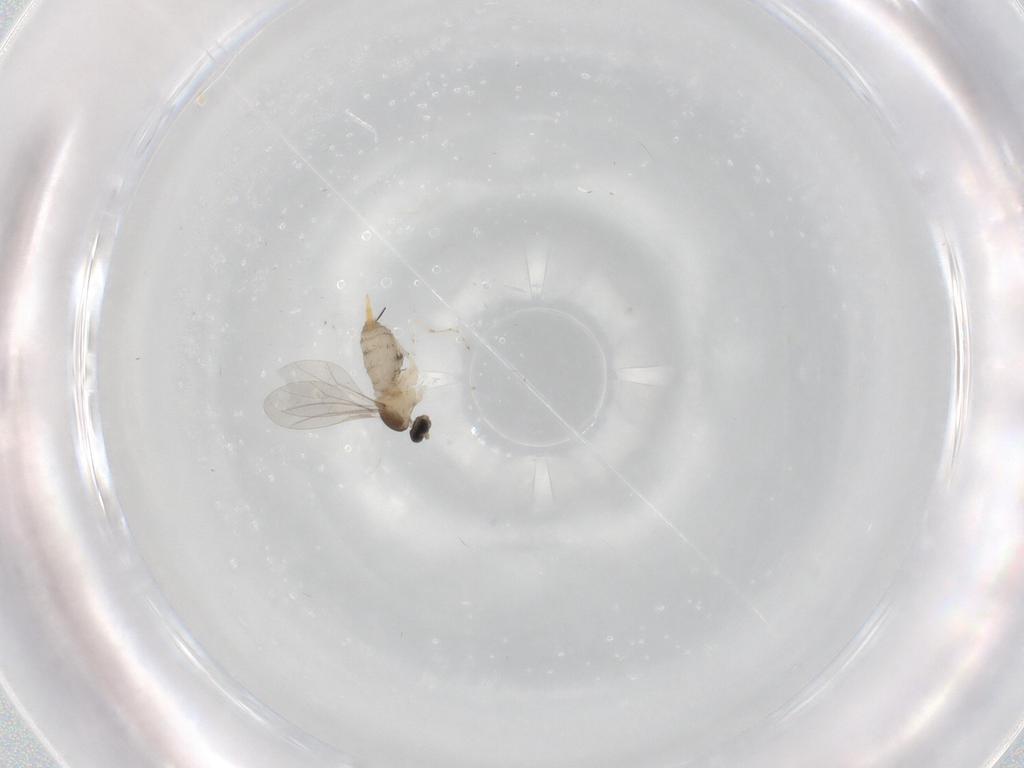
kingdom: Animalia
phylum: Arthropoda
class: Insecta
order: Diptera
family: Cecidomyiidae
